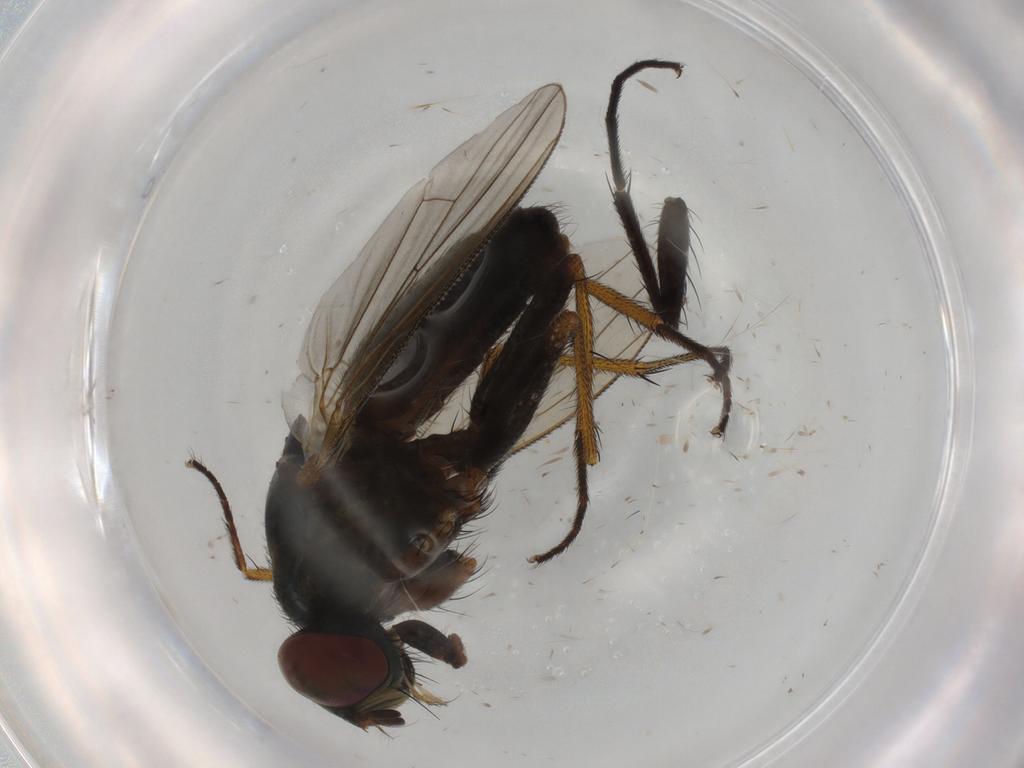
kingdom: Animalia
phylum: Arthropoda
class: Insecta
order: Diptera
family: Muscidae
